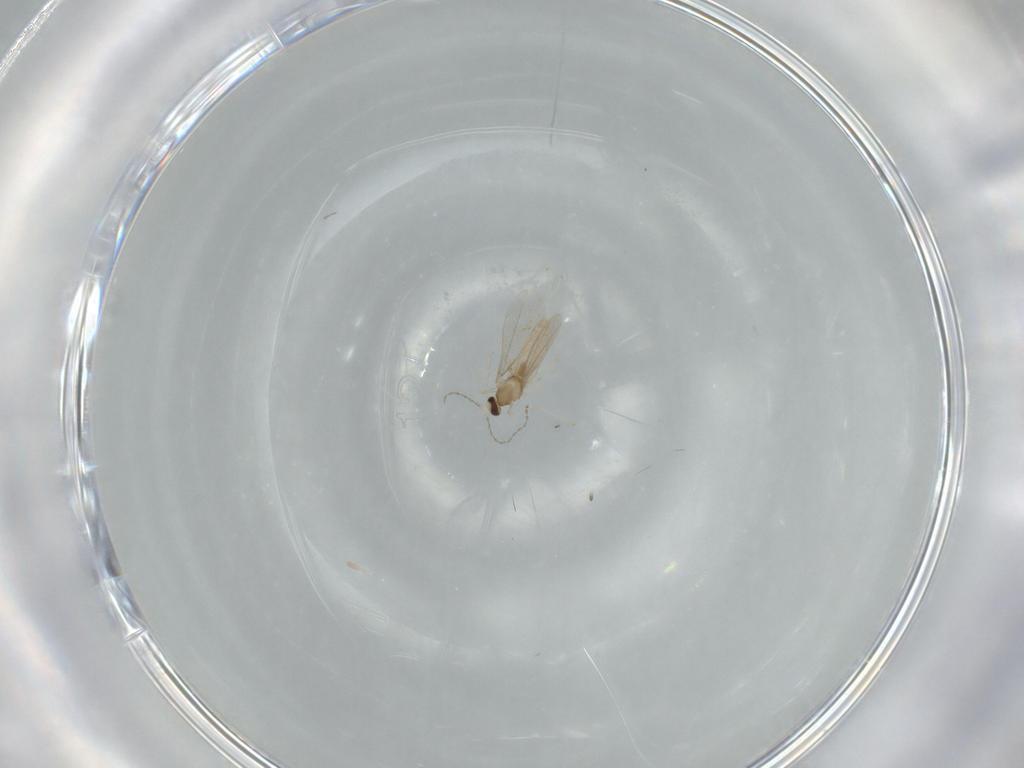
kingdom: Animalia
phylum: Arthropoda
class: Insecta
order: Diptera
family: Cecidomyiidae
